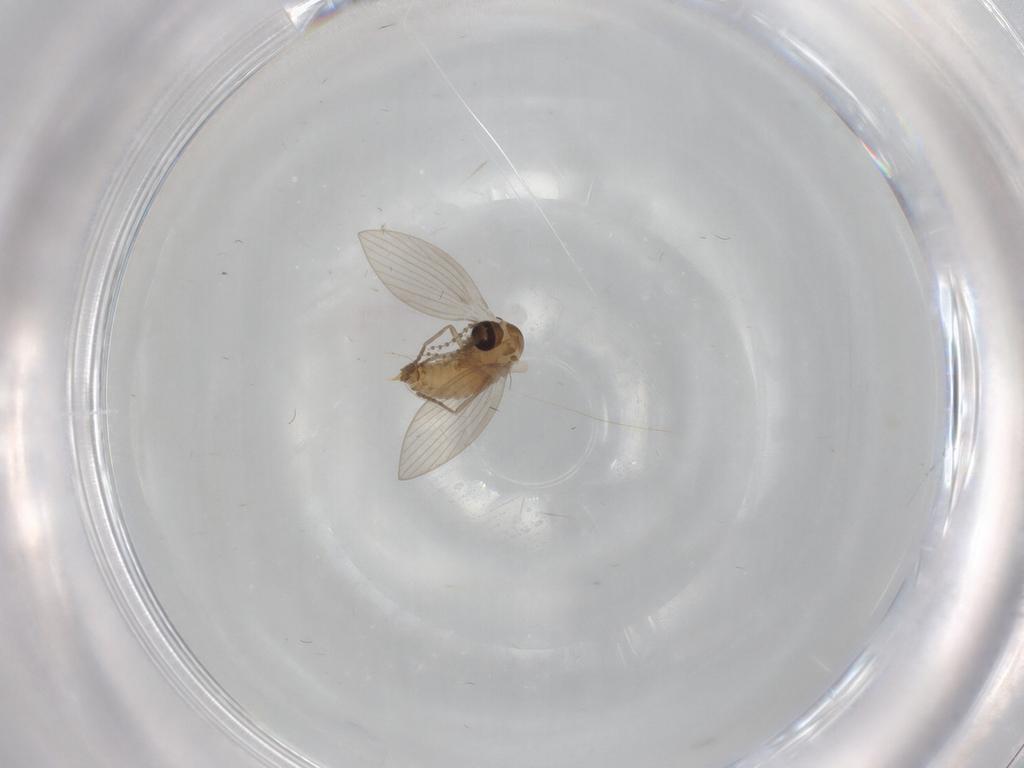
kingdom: Animalia
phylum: Arthropoda
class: Insecta
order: Diptera
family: Psychodidae
